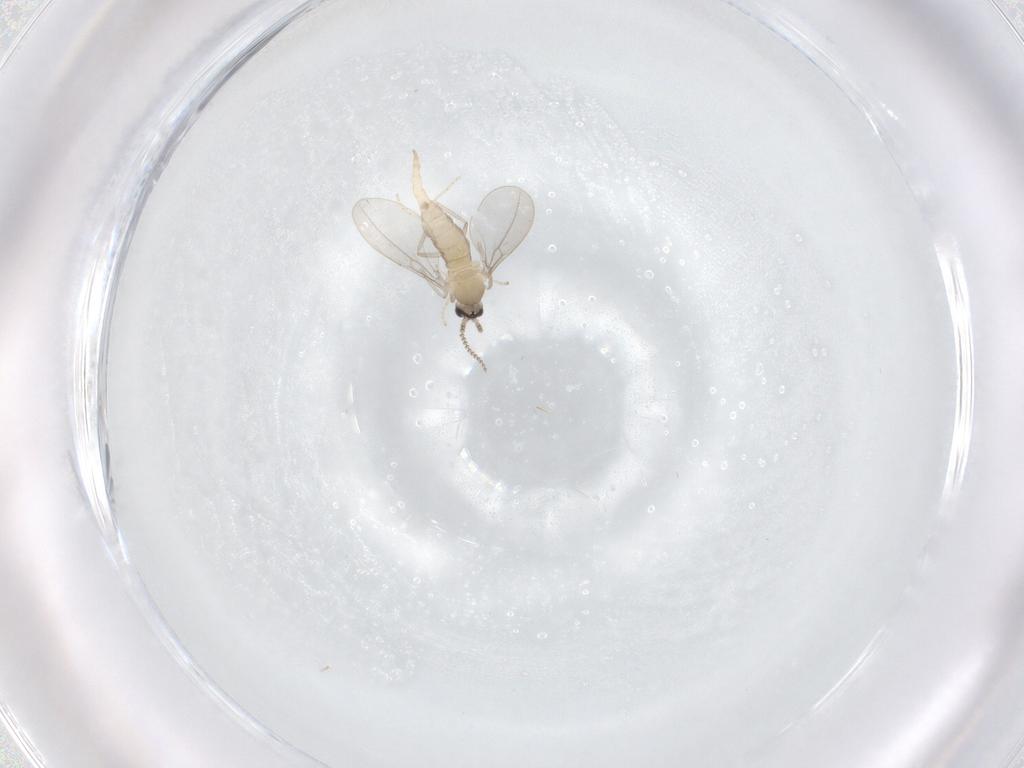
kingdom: Animalia
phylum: Arthropoda
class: Insecta
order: Diptera
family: Cecidomyiidae
